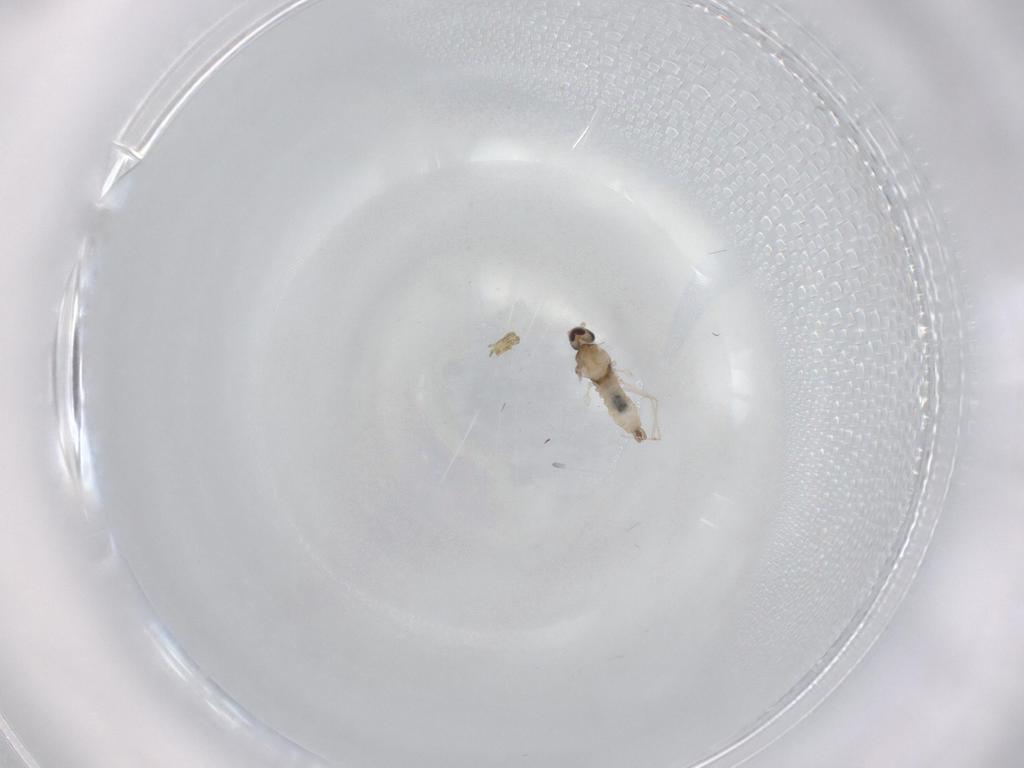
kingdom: Animalia
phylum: Arthropoda
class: Insecta
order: Diptera
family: Cecidomyiidae
